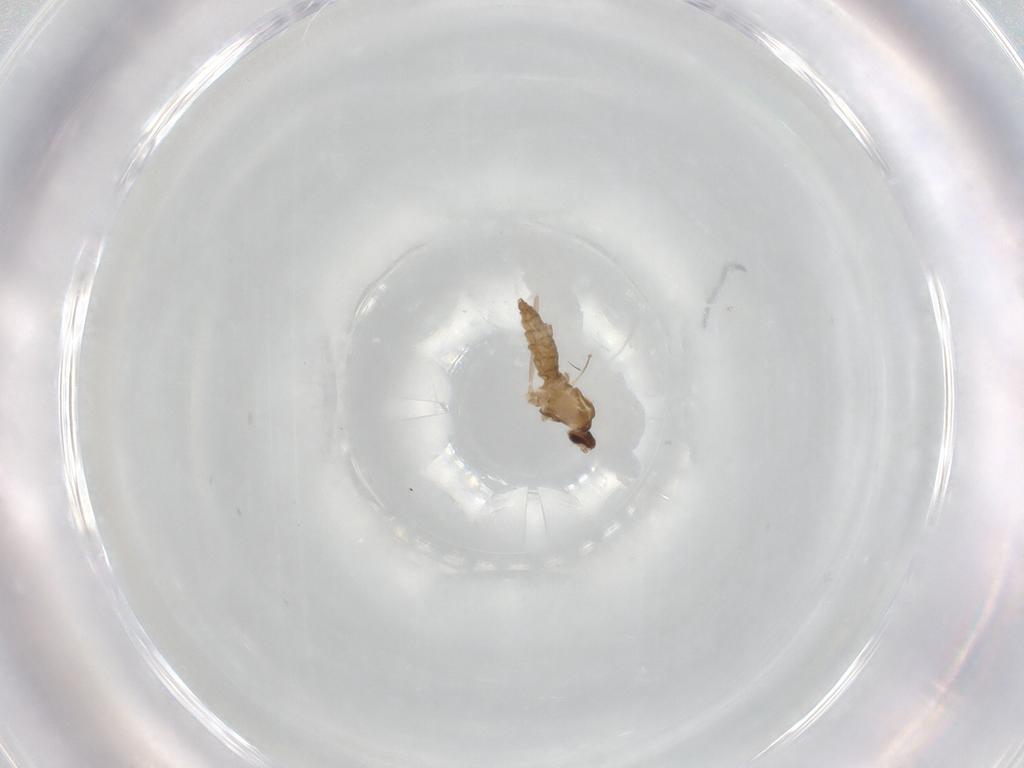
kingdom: Animalia
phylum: Arthropoda
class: Insecta
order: Diptera
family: Cecidomyiidae
